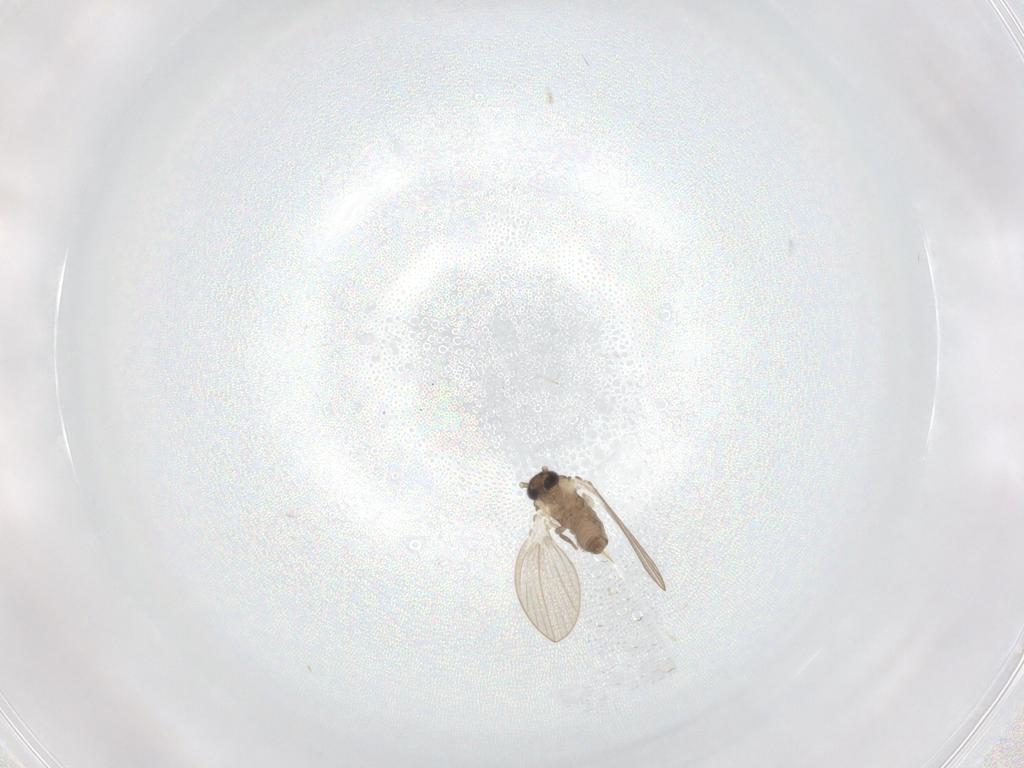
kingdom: Animalia
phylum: Arthropoda
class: Insecta
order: Diptera
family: Psychodidae
